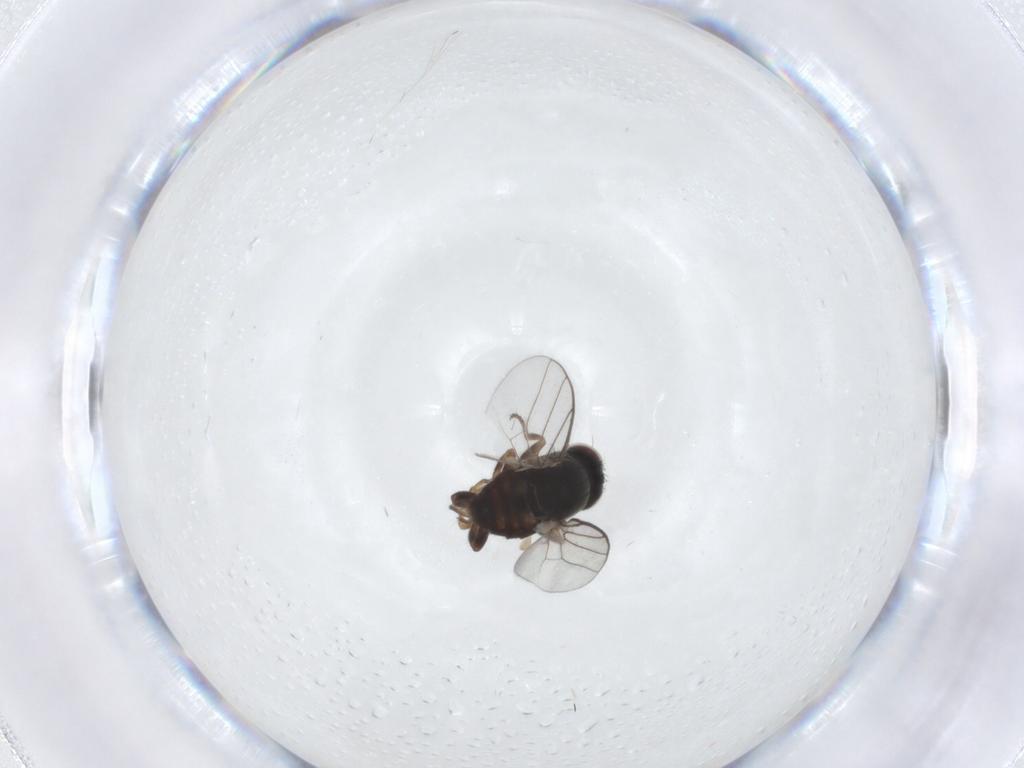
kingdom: Animalia
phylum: Arthropoda
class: Insecta
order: Diptera
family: Chloropidae
